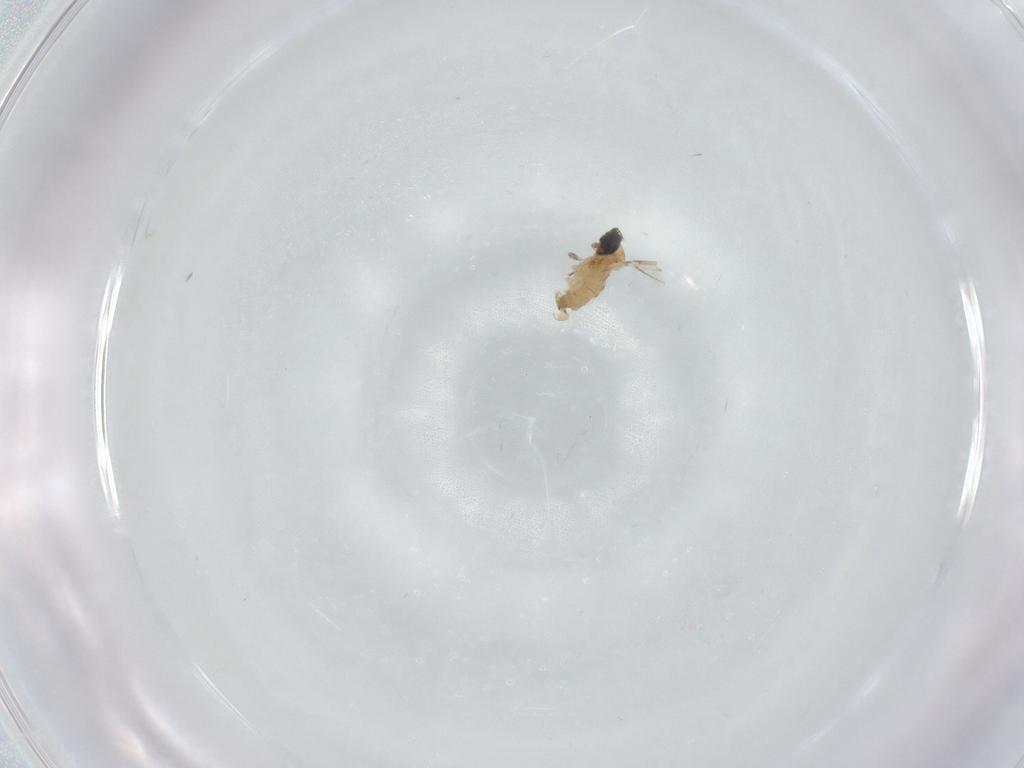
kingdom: Animalia
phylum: Arthropoda
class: Insecta
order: Diptera
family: Cecidomyiidae
